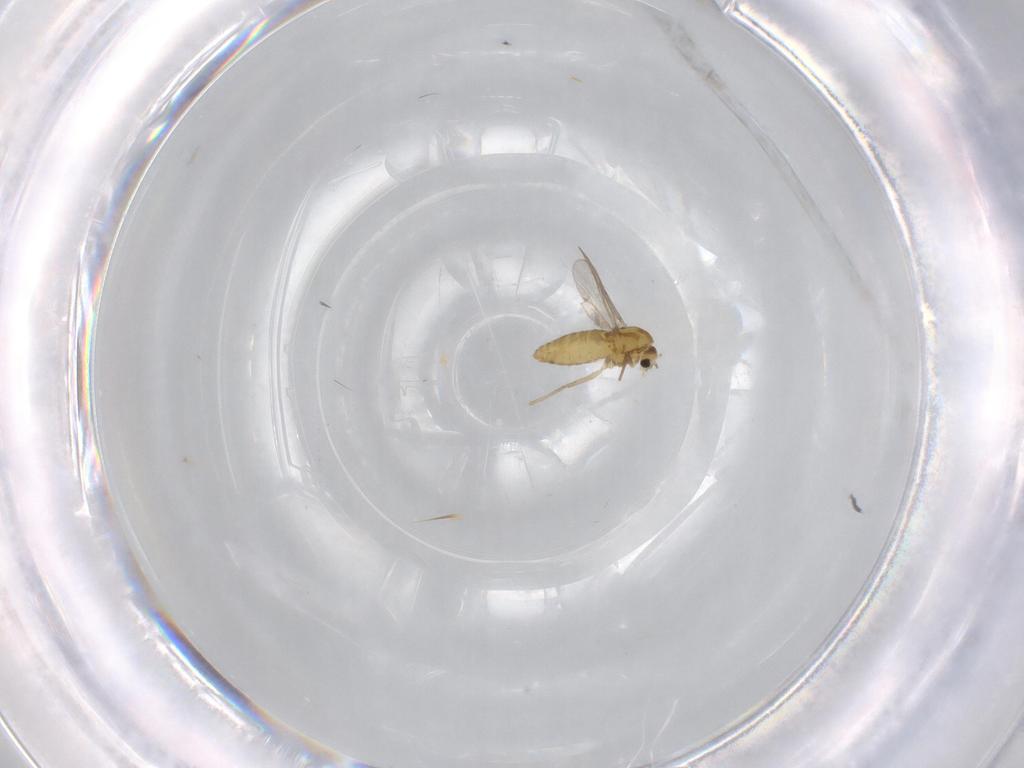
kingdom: Animalia
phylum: Arthropoda
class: Insecta
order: Diptera
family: Chironomidae
